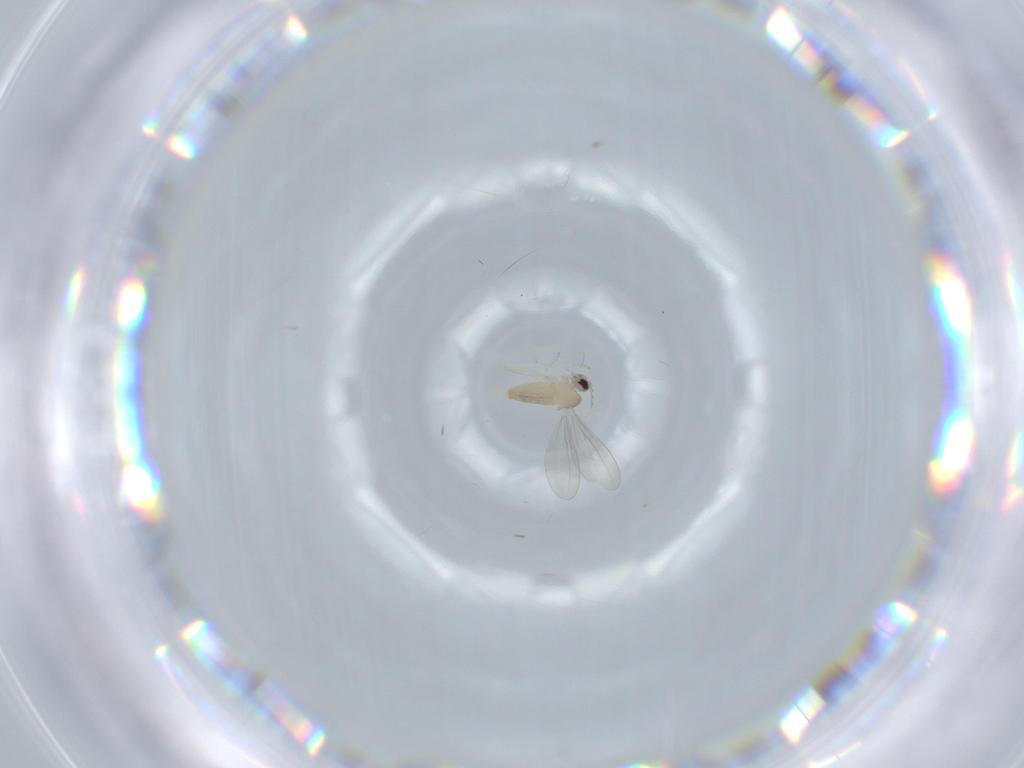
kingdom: Animalia
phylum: Arthropoda
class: Insecta
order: Diptera
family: Cecidomyiidae
